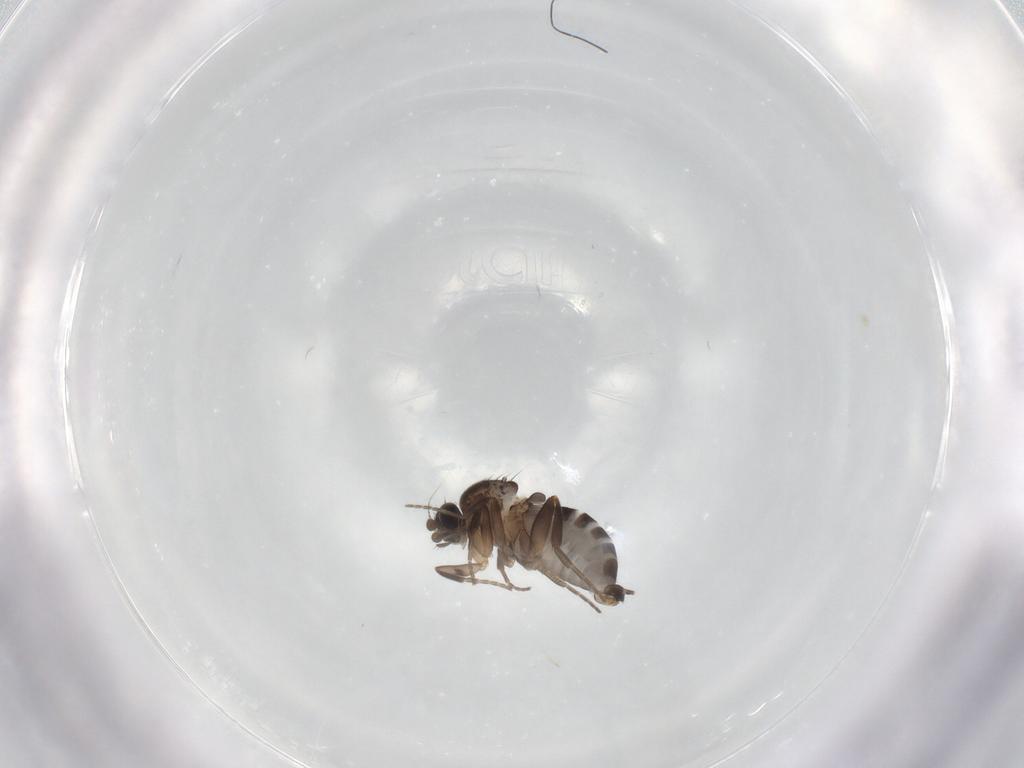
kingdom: Animalia
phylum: Arthropoda
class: Insecta
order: Diptera
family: Phoridae
